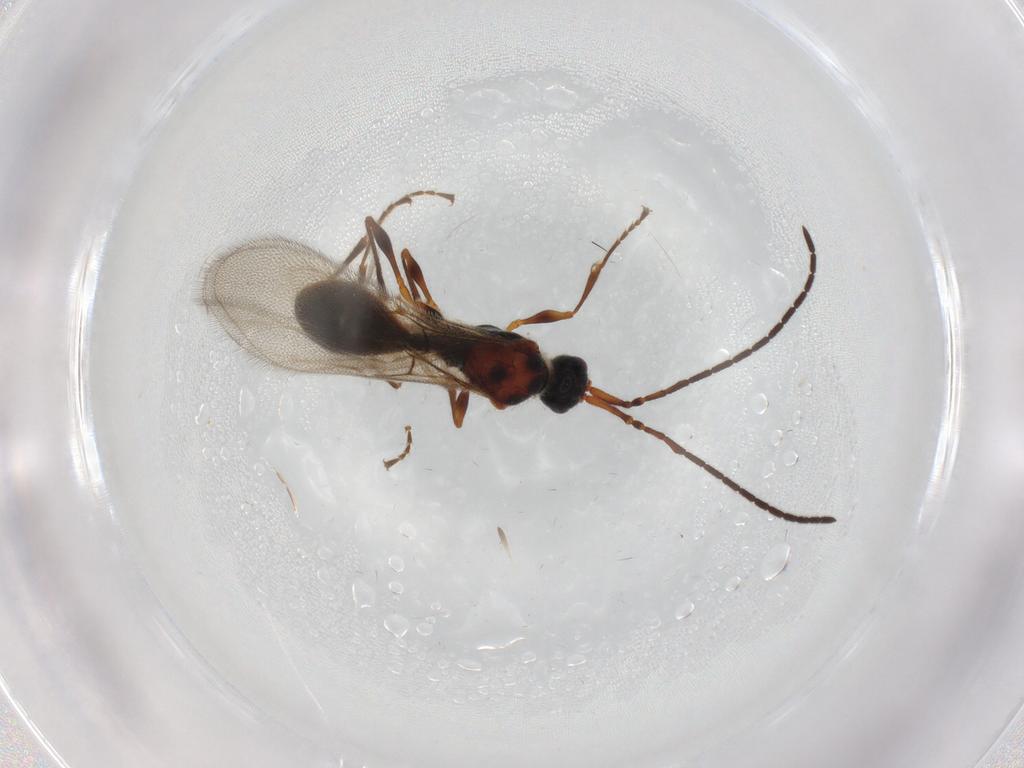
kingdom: Animalia
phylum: Arthropoda
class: Insecta
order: Hymenoptera
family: Diapriidae
